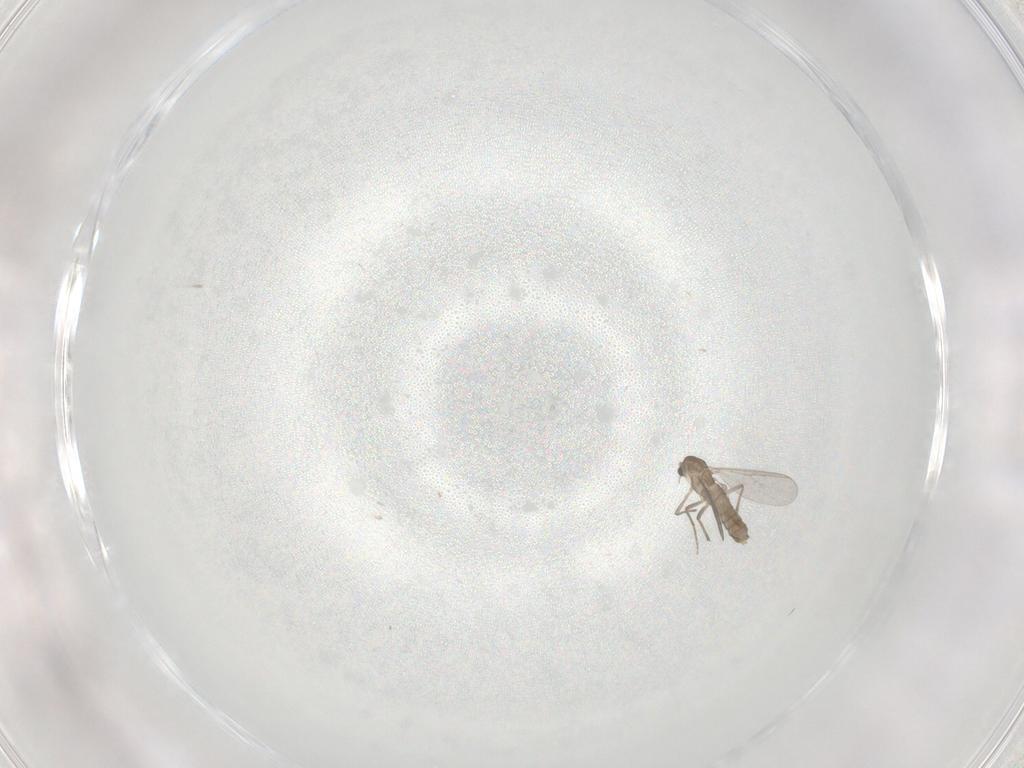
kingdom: Animalia
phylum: Arthropoda
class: Insecta
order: Diptera
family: Chironomidae
